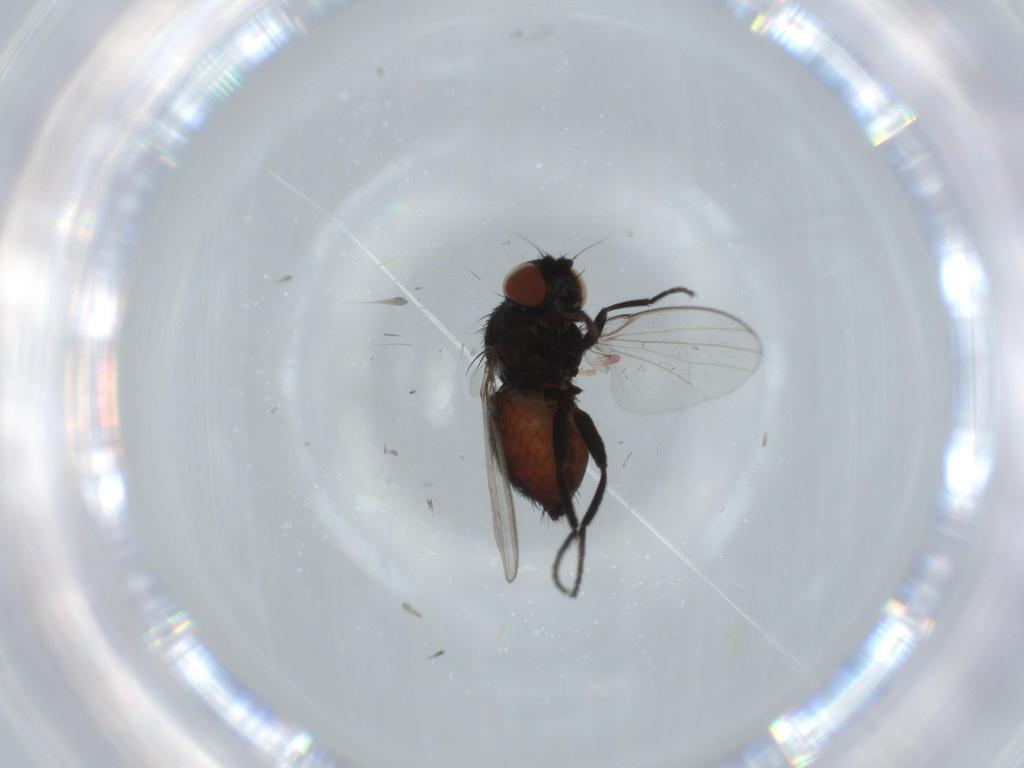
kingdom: Animalia
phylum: Arthropoda
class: Insecta
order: Diptera
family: Milichiidae
